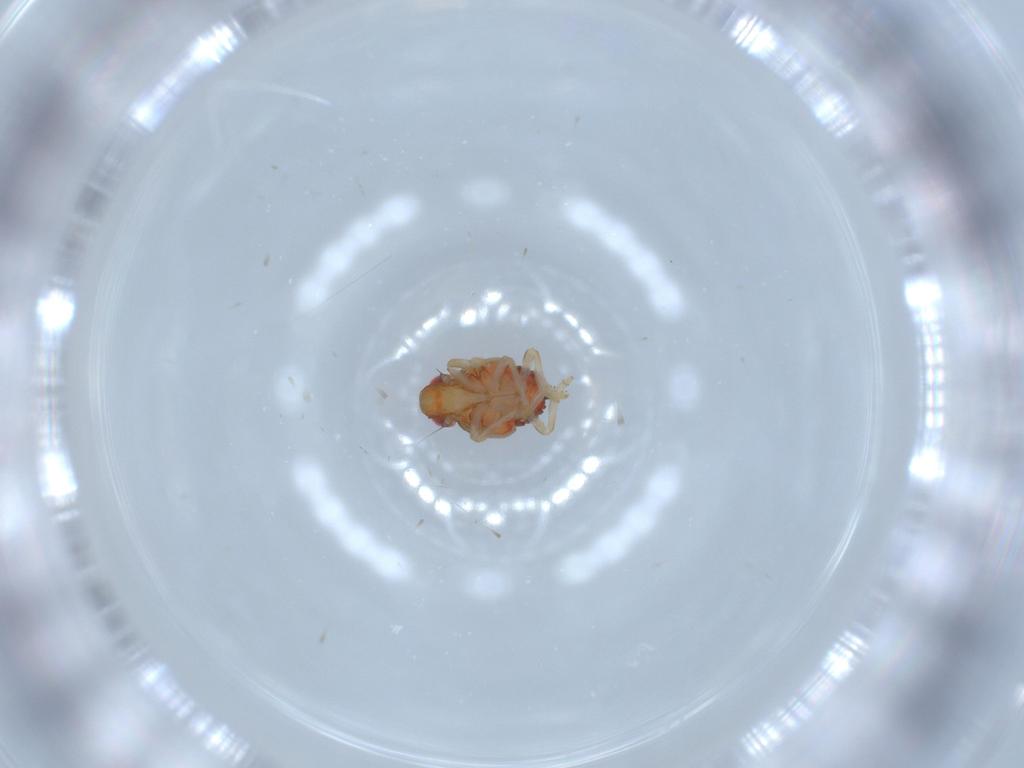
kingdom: Animalia
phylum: Arthropoda
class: Insecta
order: Hemiptera
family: Issidae
